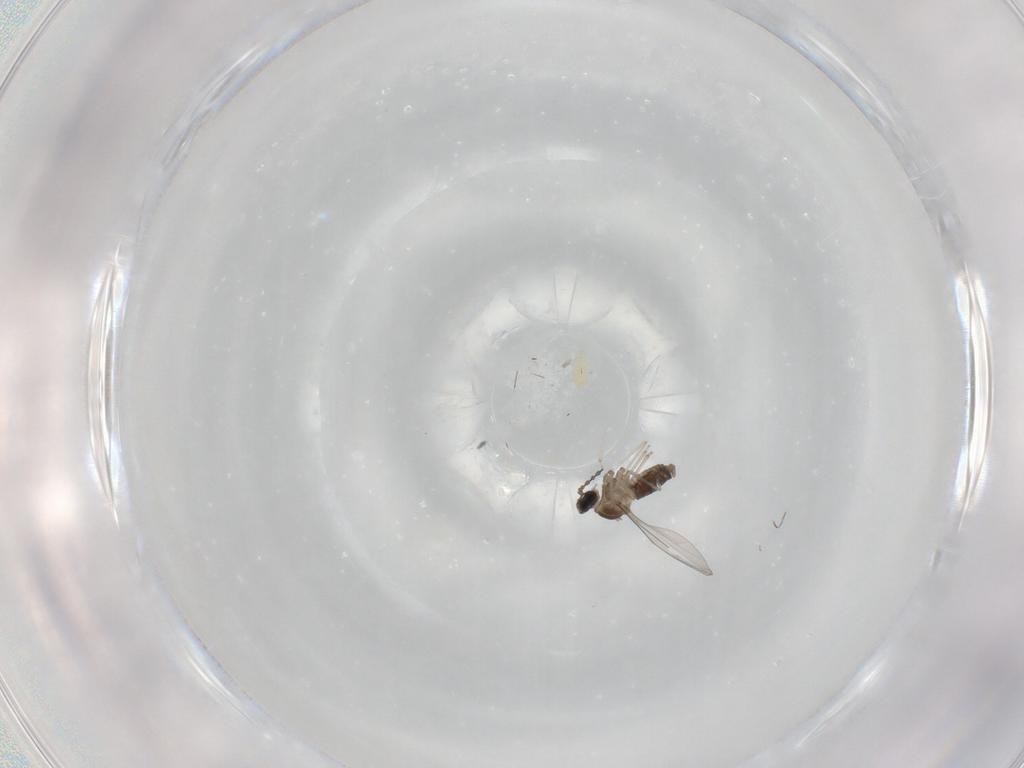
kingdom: Animalia
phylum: Arthropoda
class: Insecta
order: Diptera
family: Cecidomyiidae
